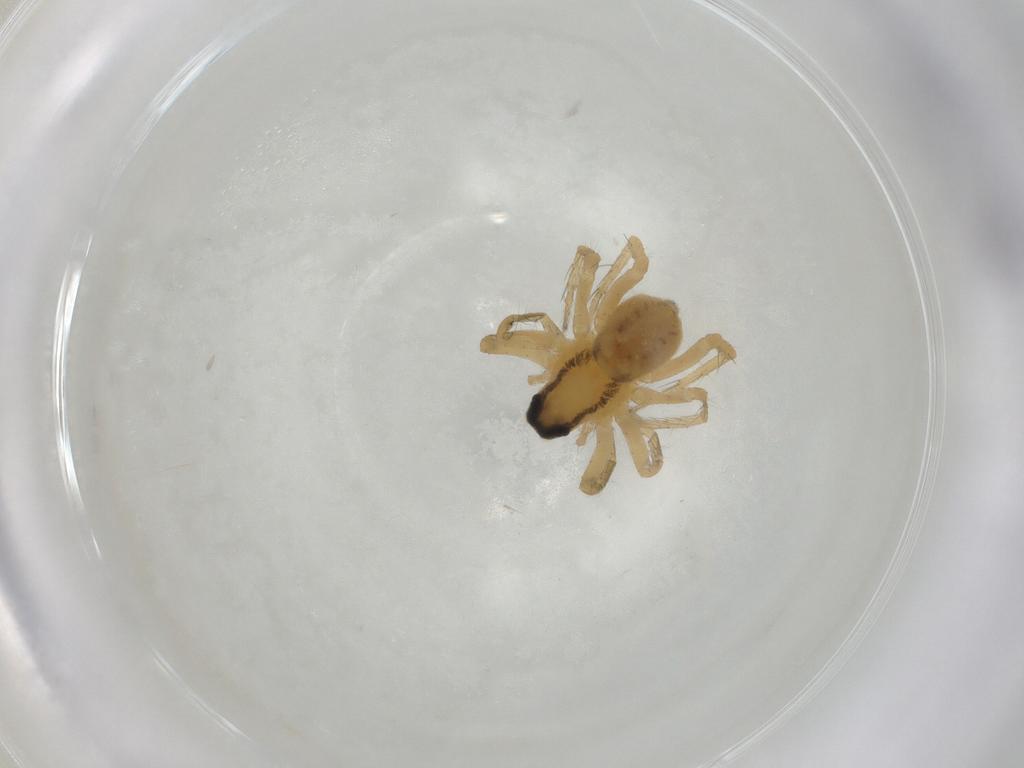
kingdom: Animalia
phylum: Arthropoda
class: Arachnida
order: Araneae
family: Lycosidae
